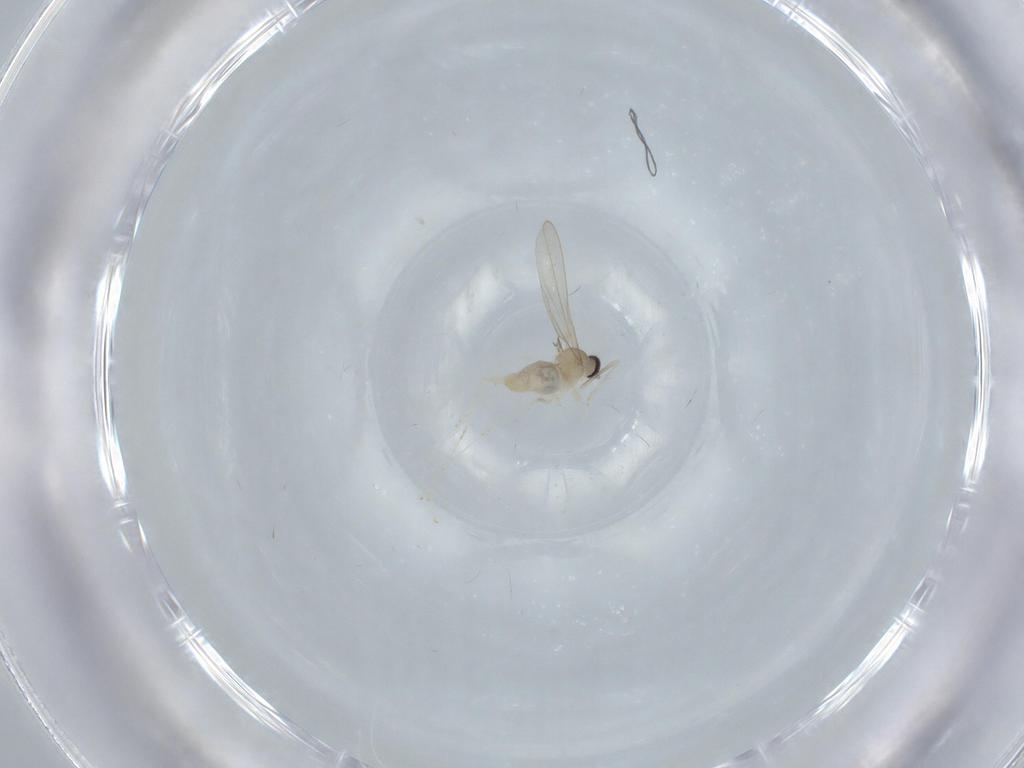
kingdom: Animalia
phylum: Arthropoda
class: Insecta
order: Diptera
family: Cecidomyiidae
